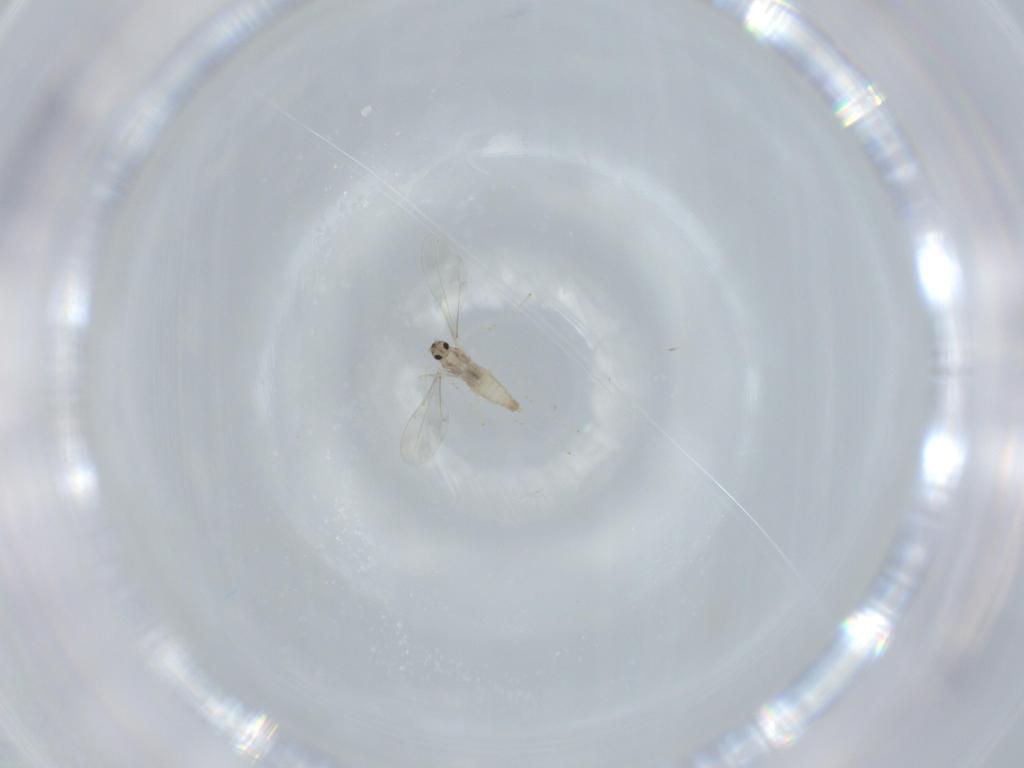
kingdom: Animalia
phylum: Arthropoda
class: Insecta
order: Diptera
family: Cecidomyiidae
